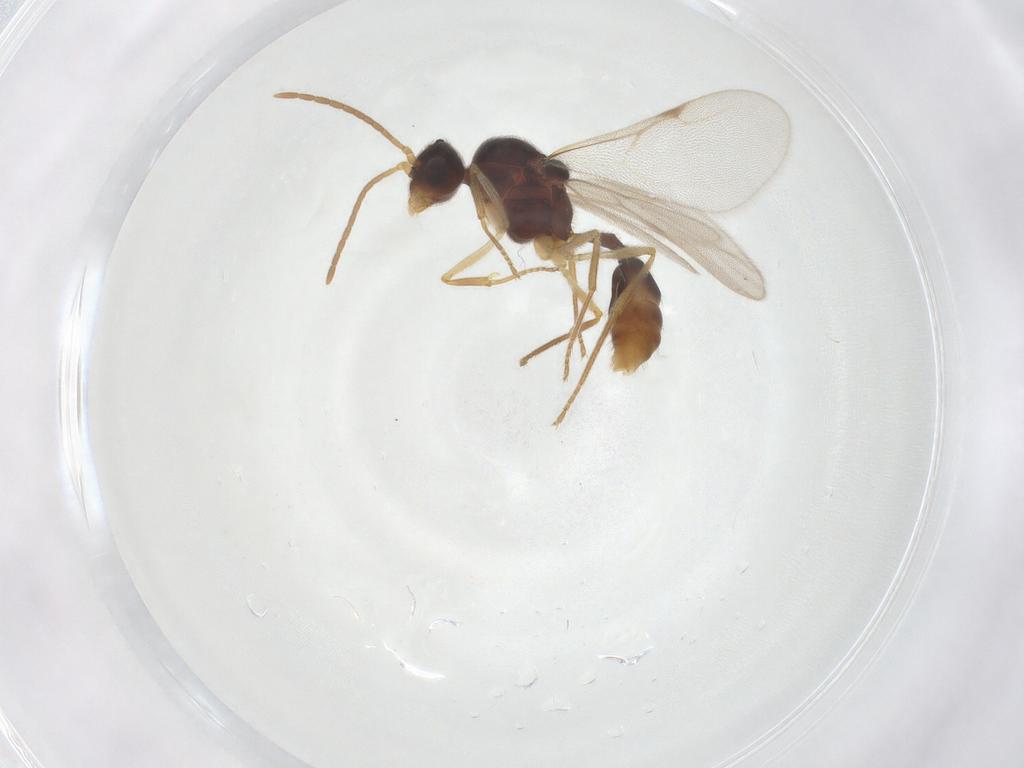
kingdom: Animalia
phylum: Arthropoda
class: Insecta
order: Hymenoptera
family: Formicidae
